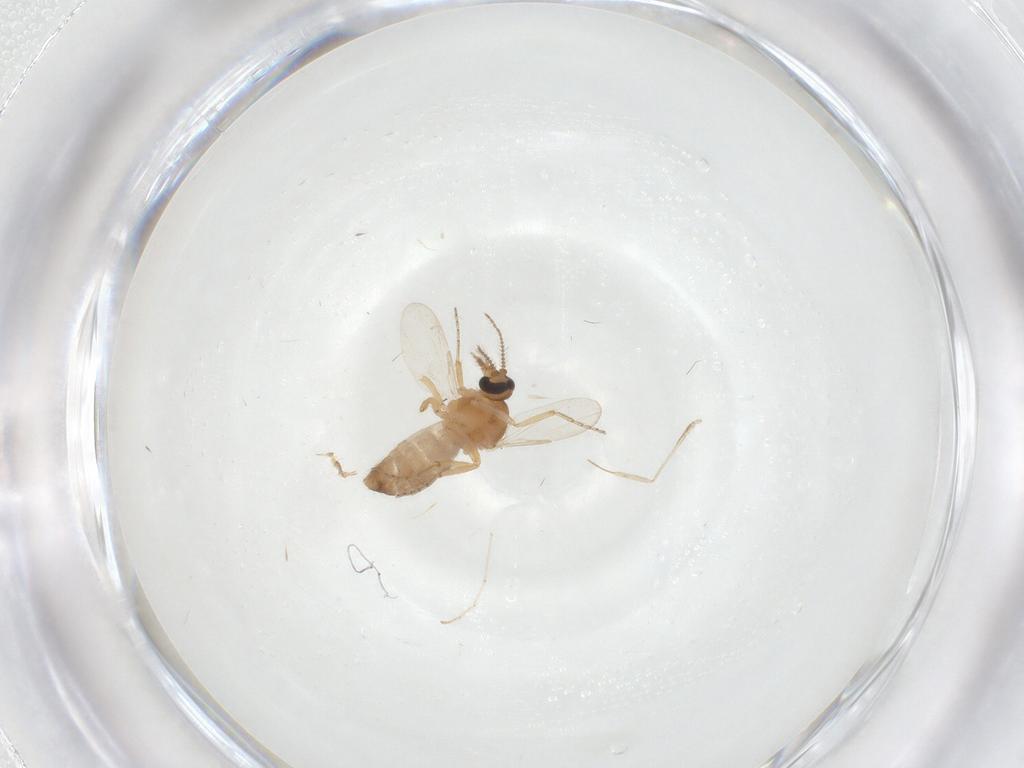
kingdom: Animalia
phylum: Arthropoda
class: Insecta
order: Diptera
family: Ceratopogonidae
